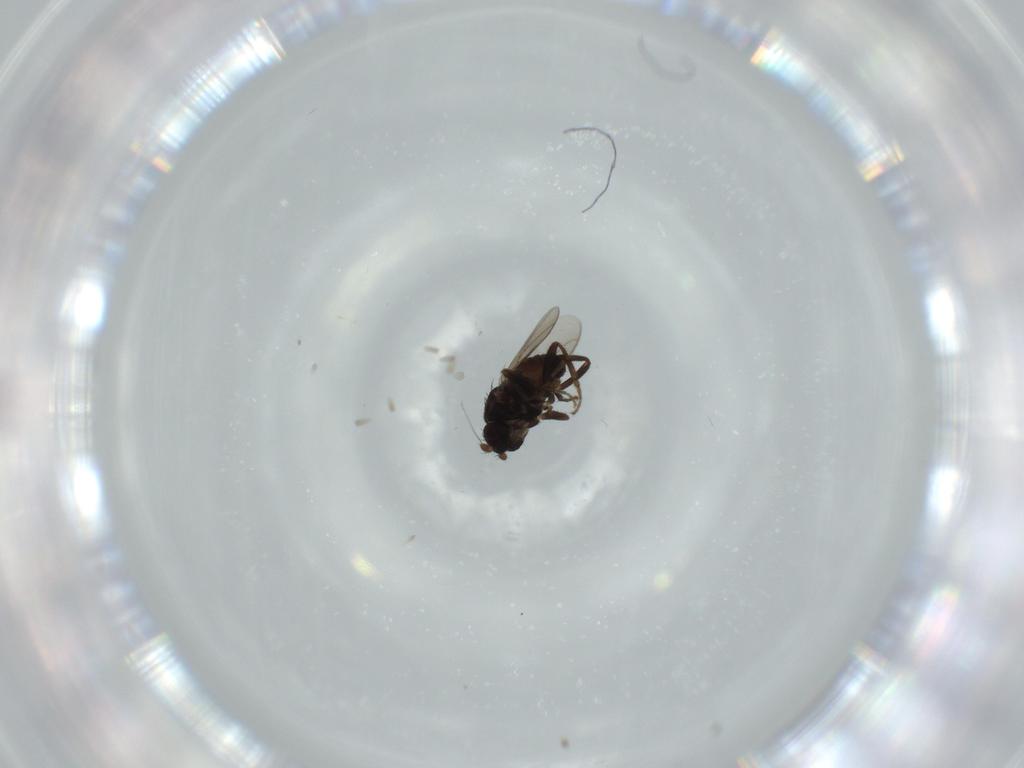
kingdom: Animalia
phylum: Arthropoda
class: Insecta
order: Diptera
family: Sphaeroceridae
